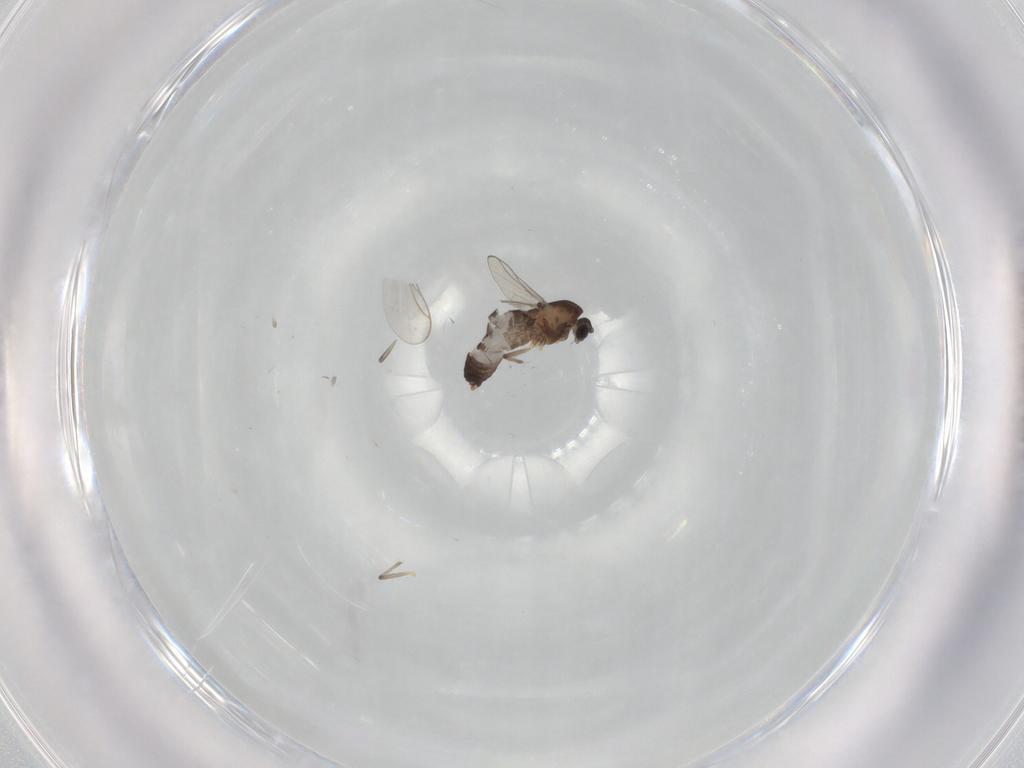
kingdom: Animalia
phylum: Arthropoda
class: Insecta
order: Diptera
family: Chironomidae
